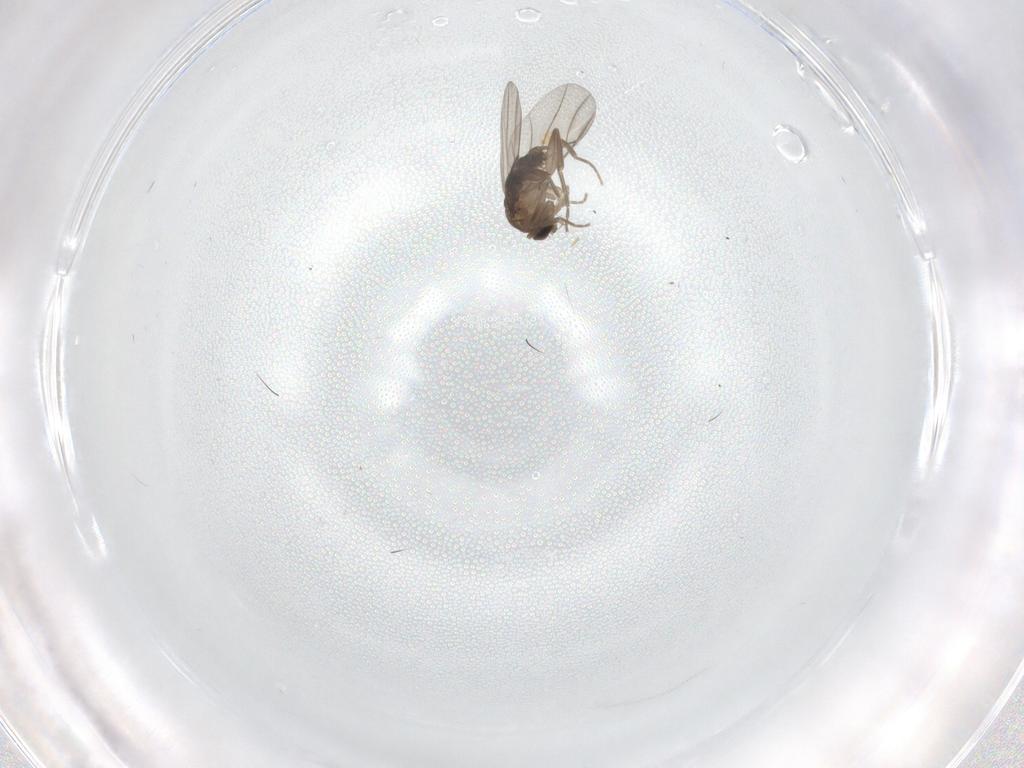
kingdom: Animalia
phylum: Arthropoda
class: Insecta
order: Diptera
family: Phoridae
